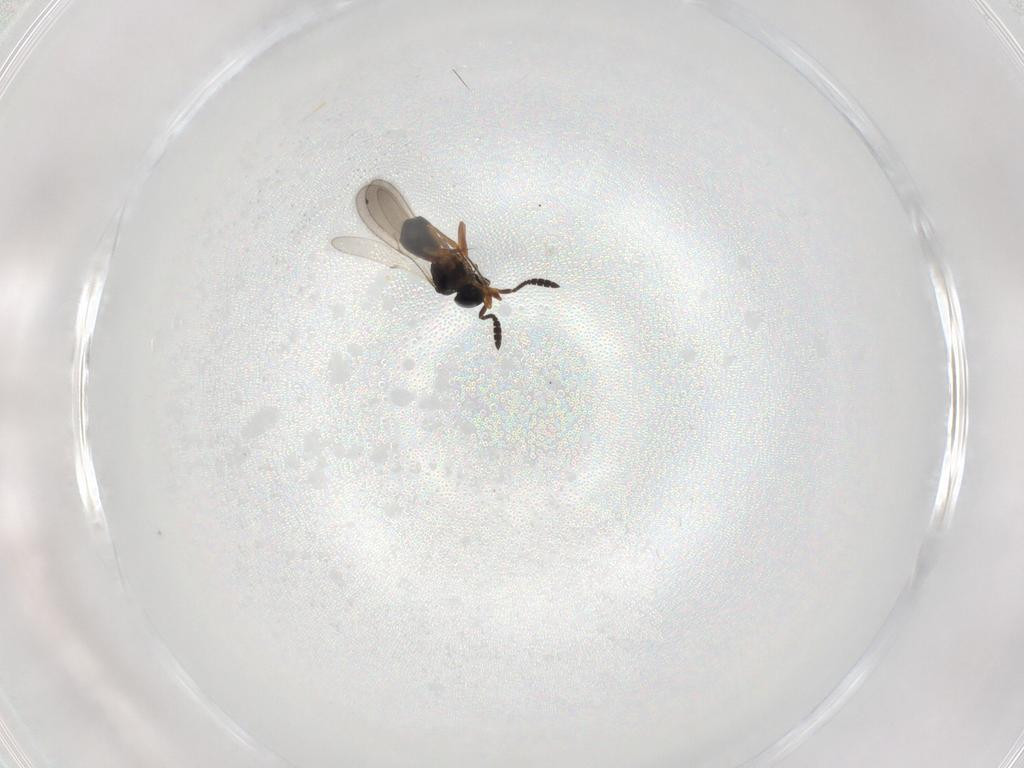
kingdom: Animalia
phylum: Arthropoda
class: Insecta
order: Hymenoptera
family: Scelionidae
